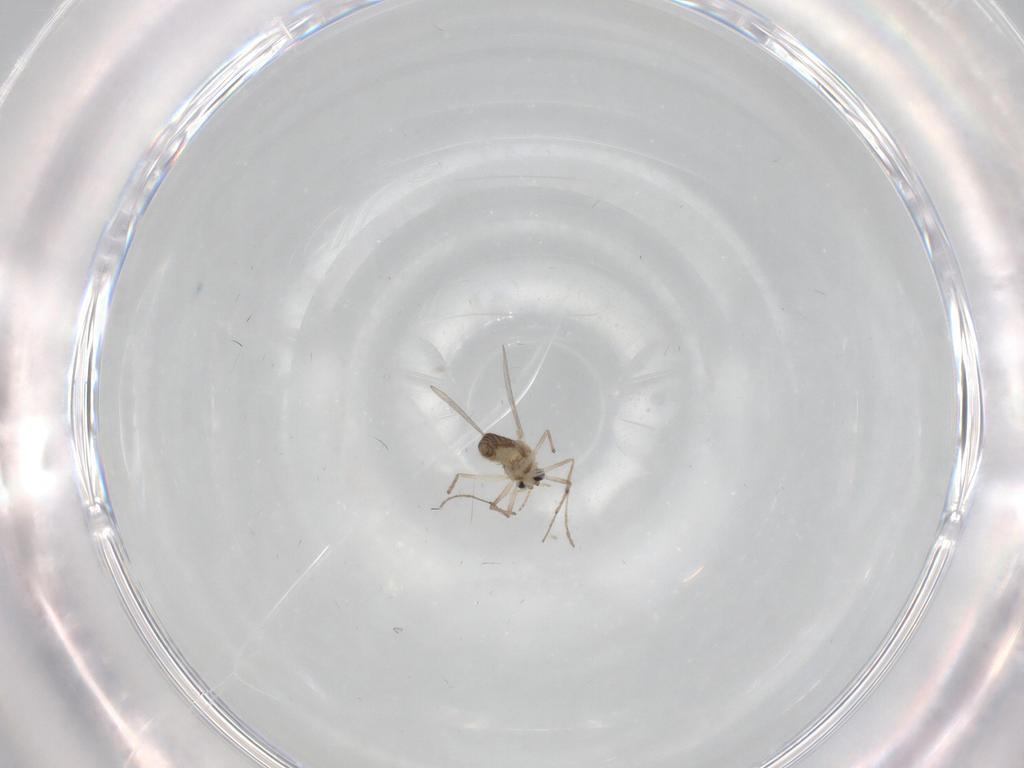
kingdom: Animalia
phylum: Arthropoda
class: Insecta
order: Diptera
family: Chironomidae
